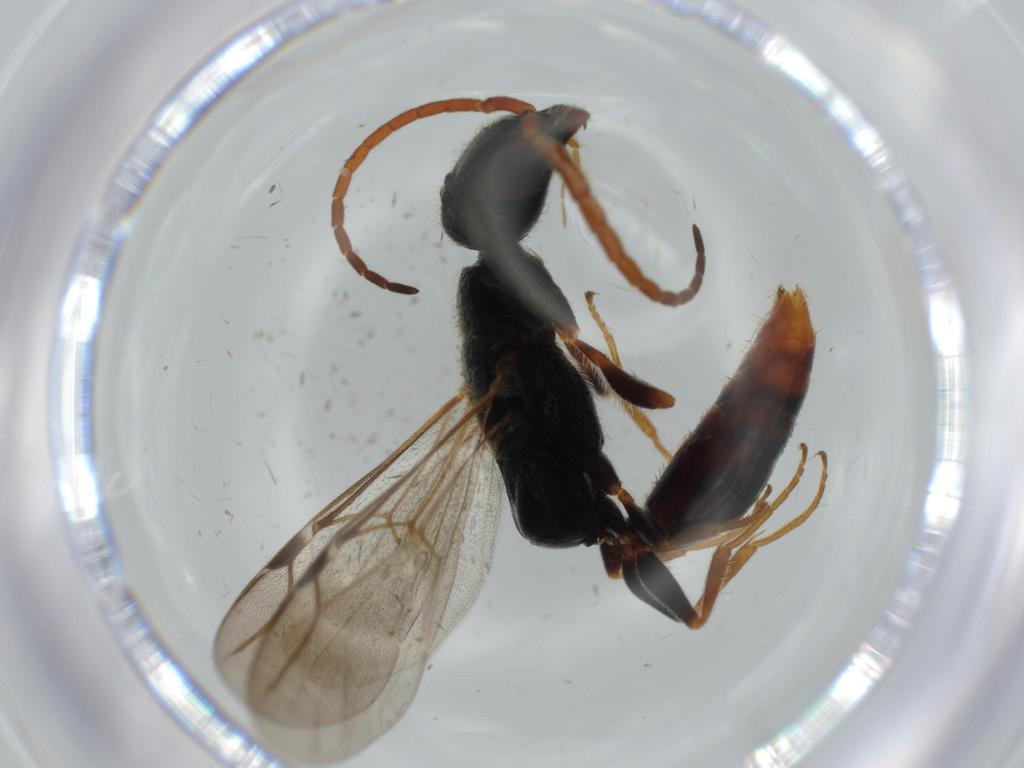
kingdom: Animalia
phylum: Arthropoda
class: Insecta
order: Hymenoptera
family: Bethylidae
